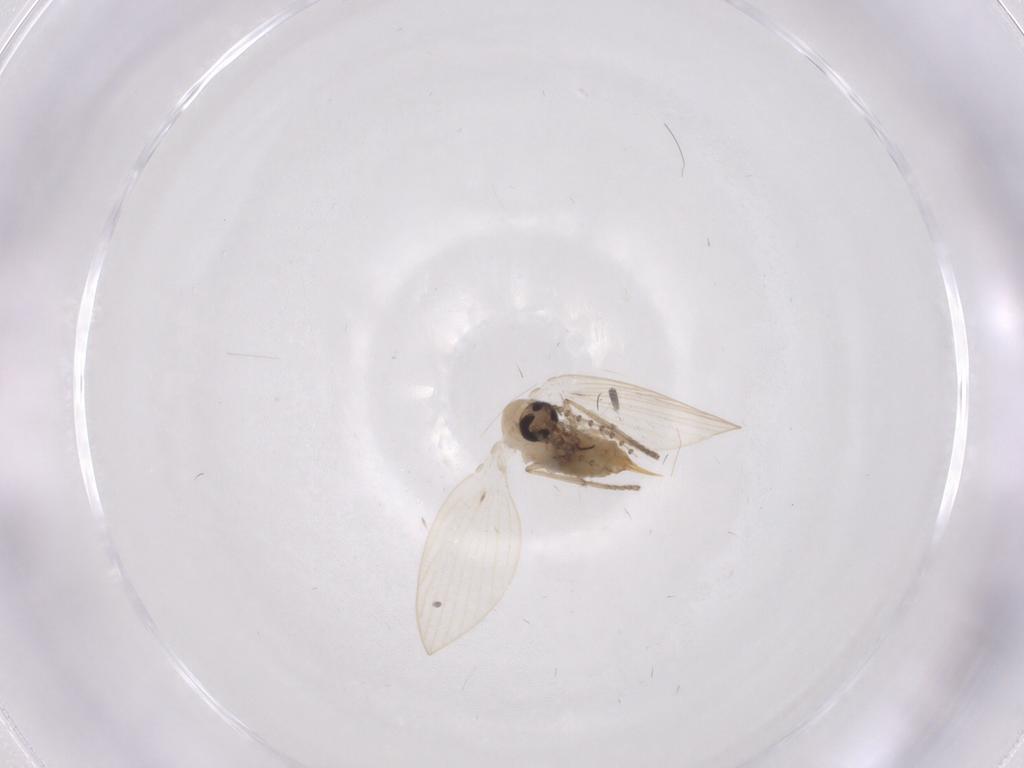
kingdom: Animalia
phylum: Arthropoda
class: Insecta
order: Diptera
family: Psychodidae
